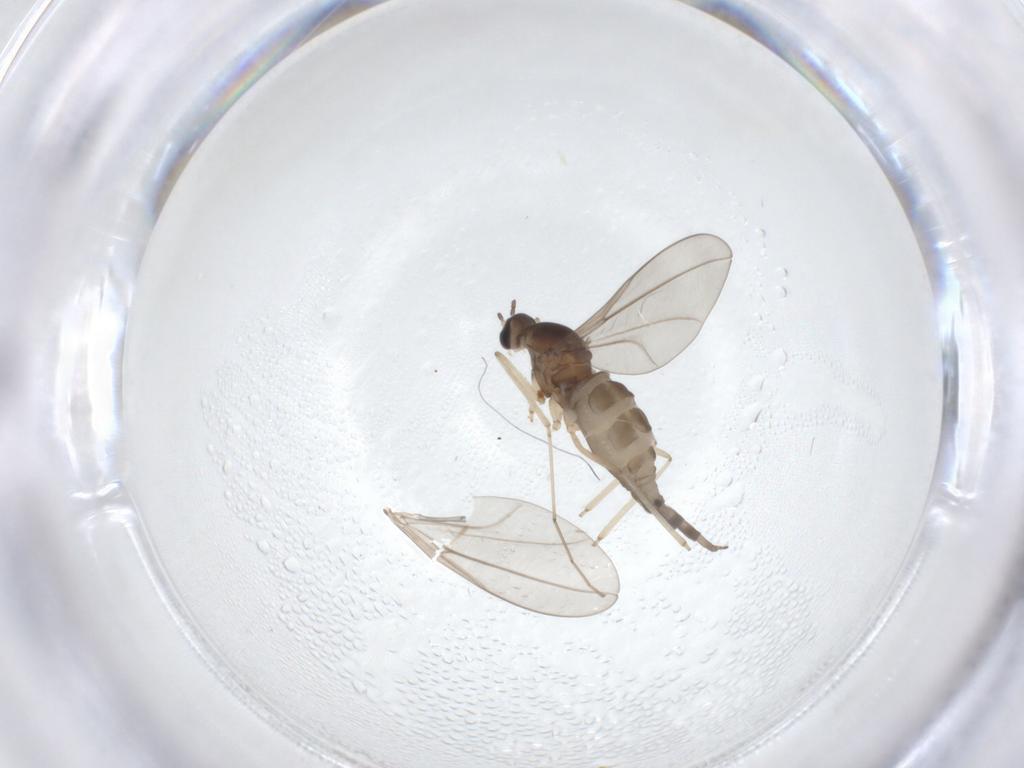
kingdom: Animalia
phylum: Arthropoda
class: Insecta
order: Diptera
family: Cecidomyiidae
